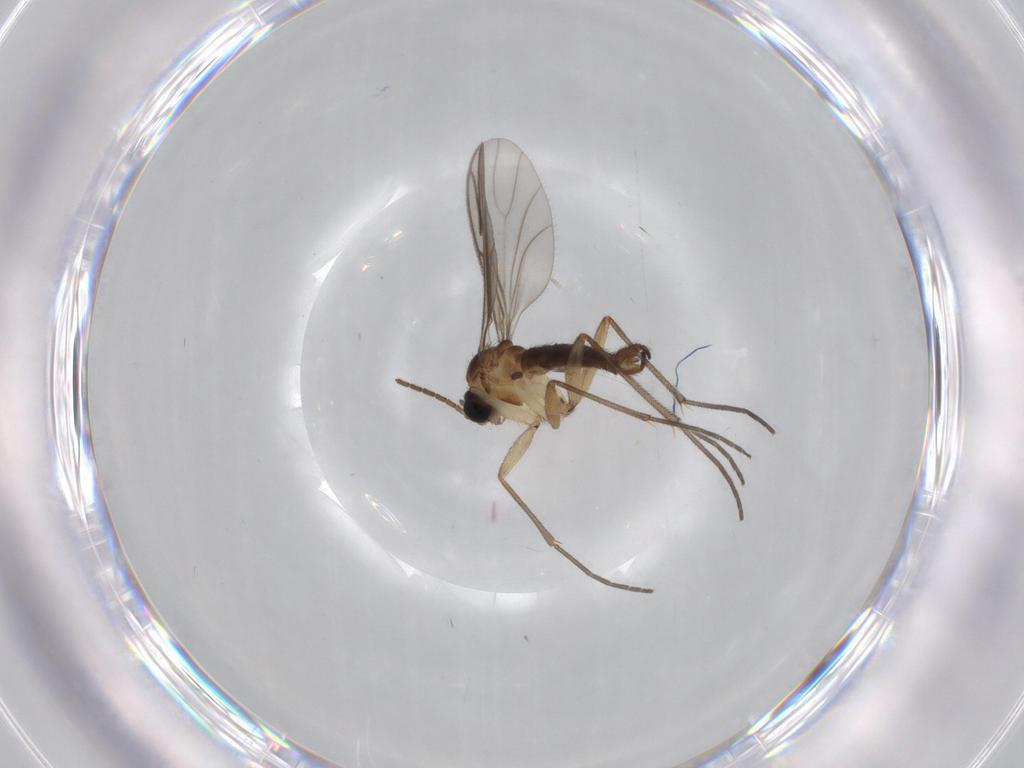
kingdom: Animalia
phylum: Arthropoda
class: Insecta
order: Diptera
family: Sciaridae
